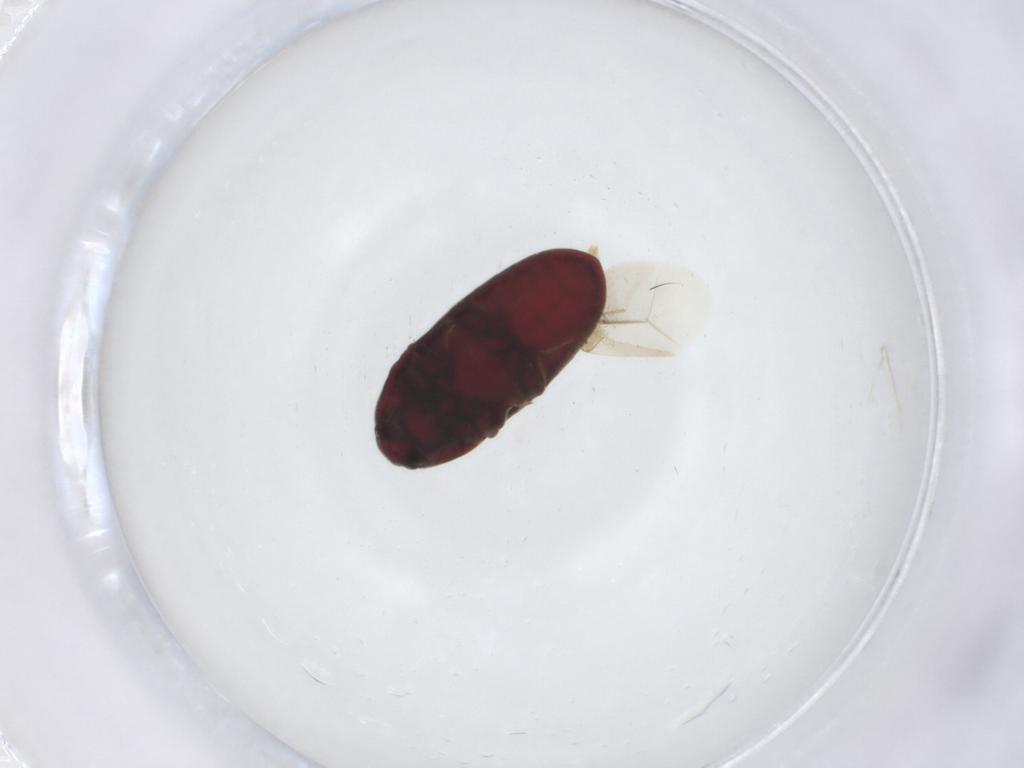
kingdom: Animalia
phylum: Arthropoda
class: Insecta
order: Coleoptera
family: Throscidae
